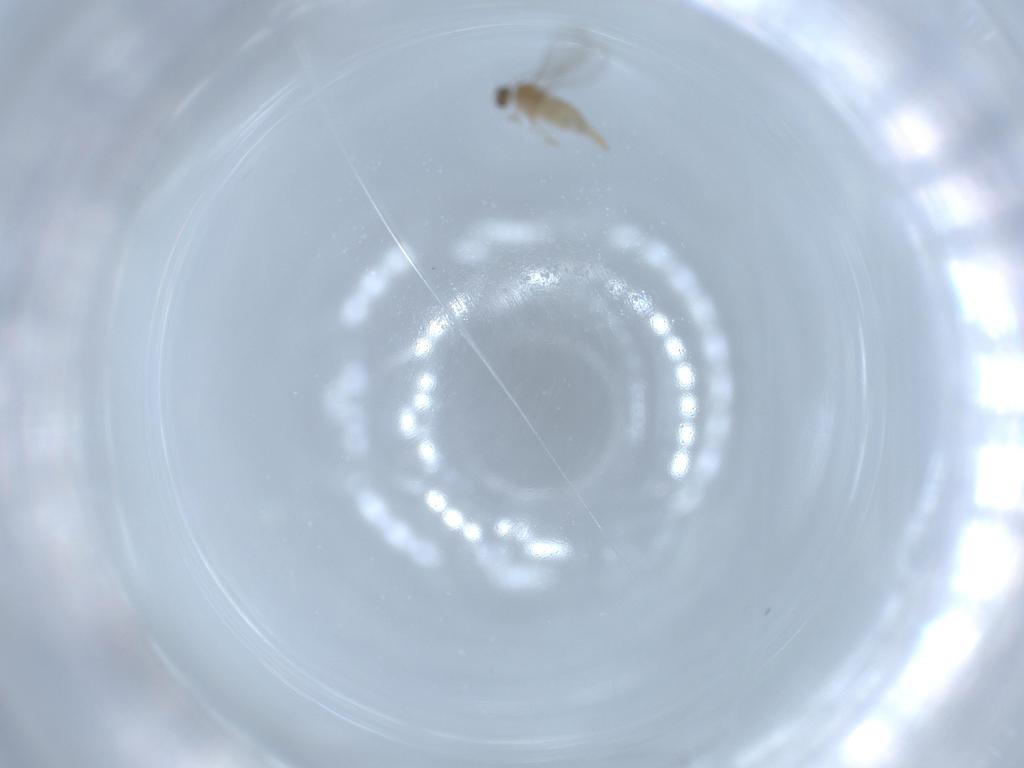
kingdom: Animalia
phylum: Arthropoda
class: Insecta
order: Diptera
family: Cecidomyiidae
